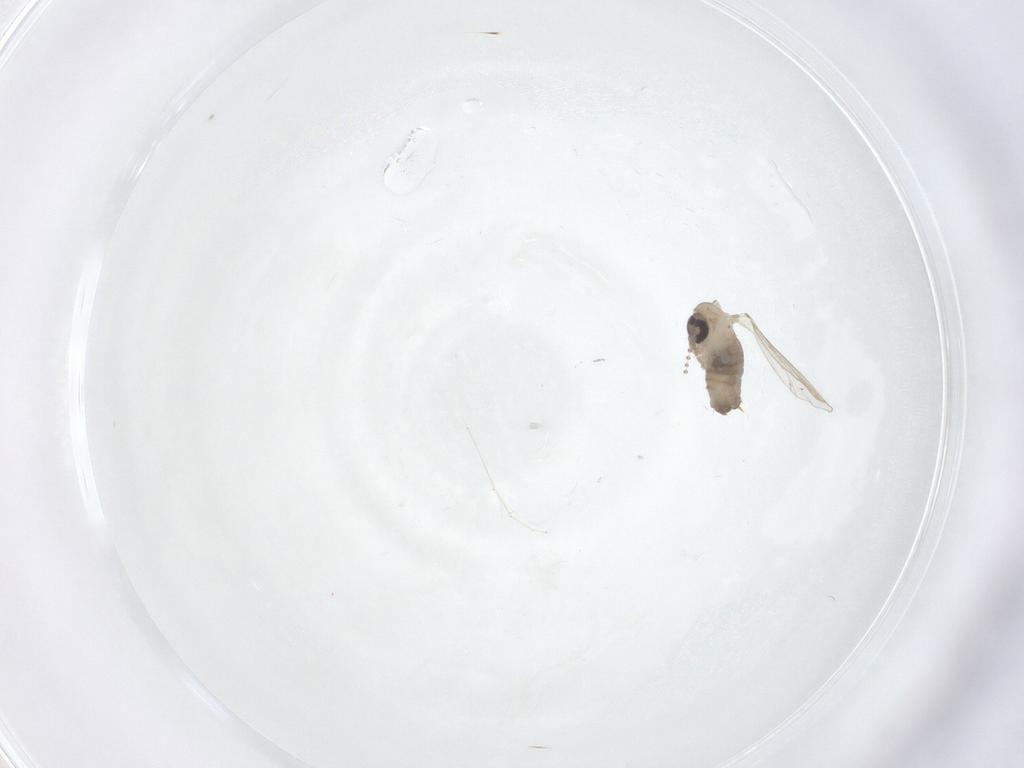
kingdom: Animalia
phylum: Arthropoda
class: Insecta
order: Diptera
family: Psychodidae
